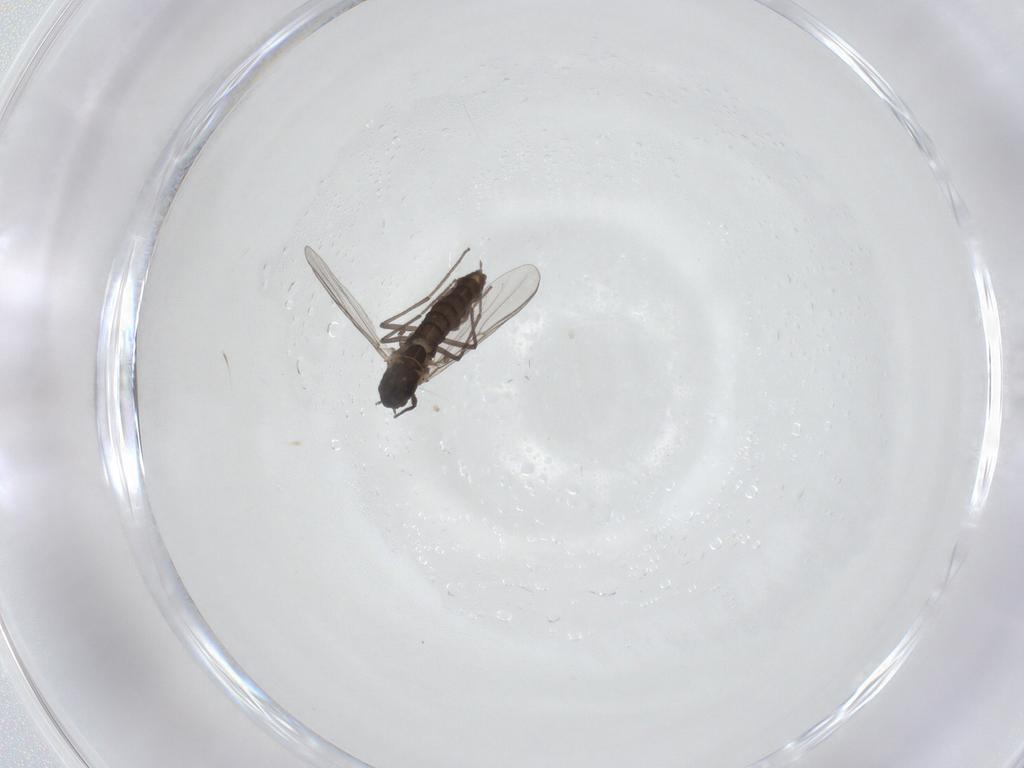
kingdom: Animalia
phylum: Arthropoda
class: Insecta
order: Diptera
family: Chironomidae
